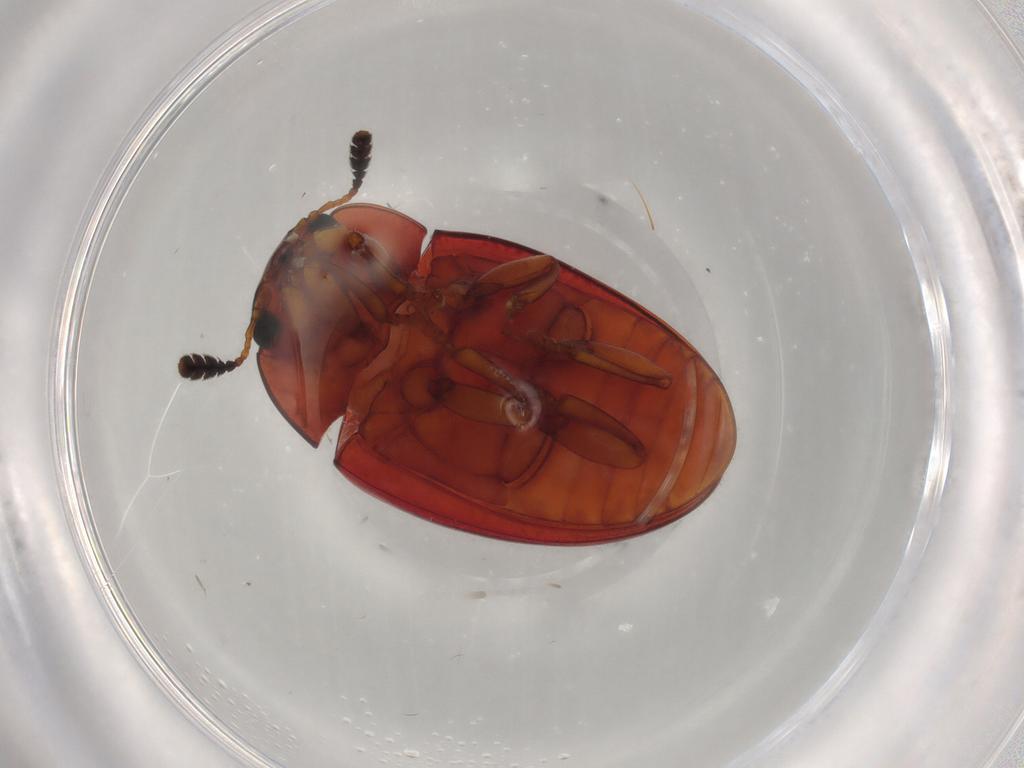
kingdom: Animalia
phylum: Arthropoda
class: Insecta
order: Coleoptera
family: Erotylidae
